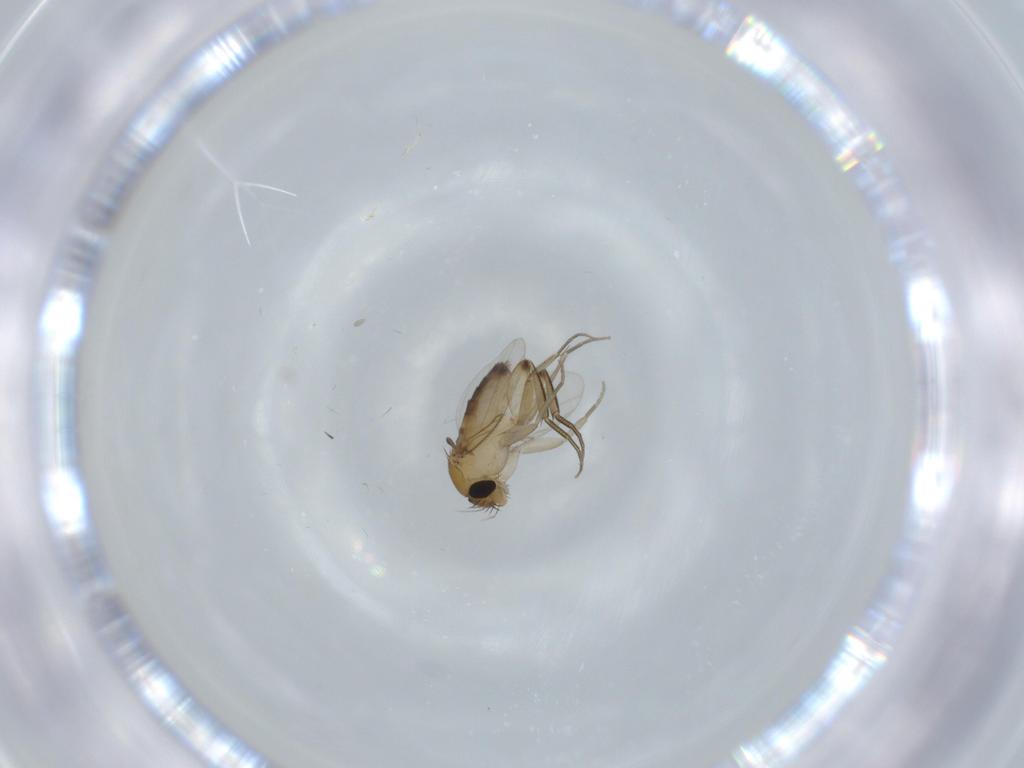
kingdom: Animalia
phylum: Arthropoda
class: Insecta
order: Diptera
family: Phoridae
